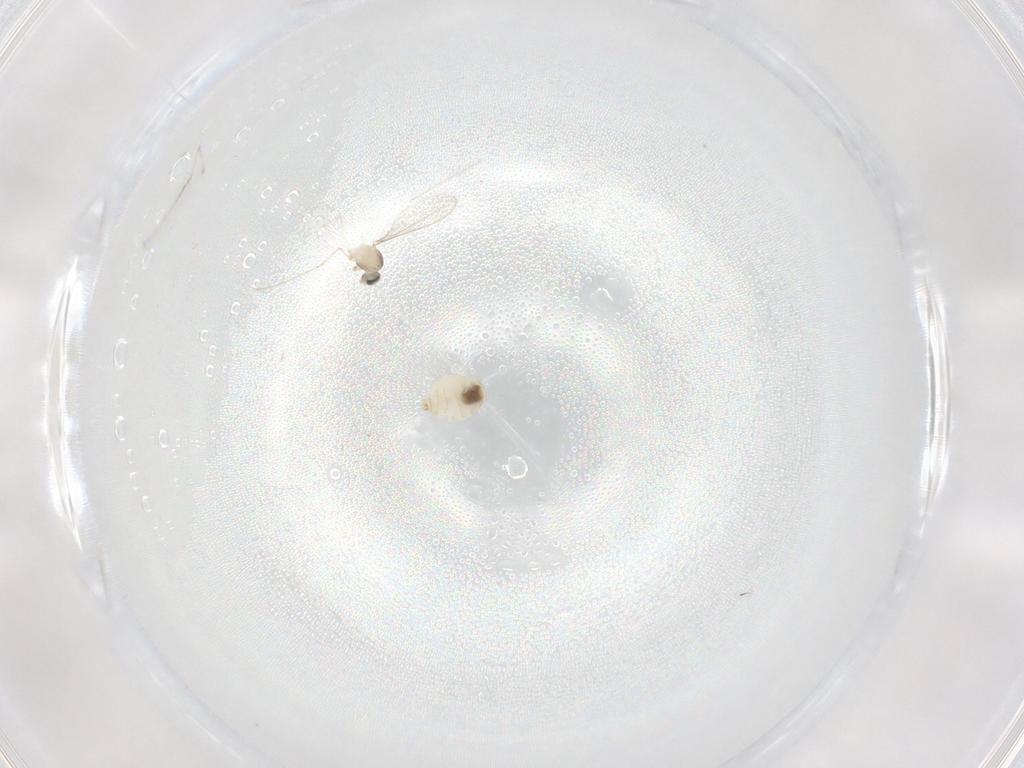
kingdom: Animalia
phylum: Arthropoda
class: Insecta
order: Diptera
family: Cecidomyiidae
